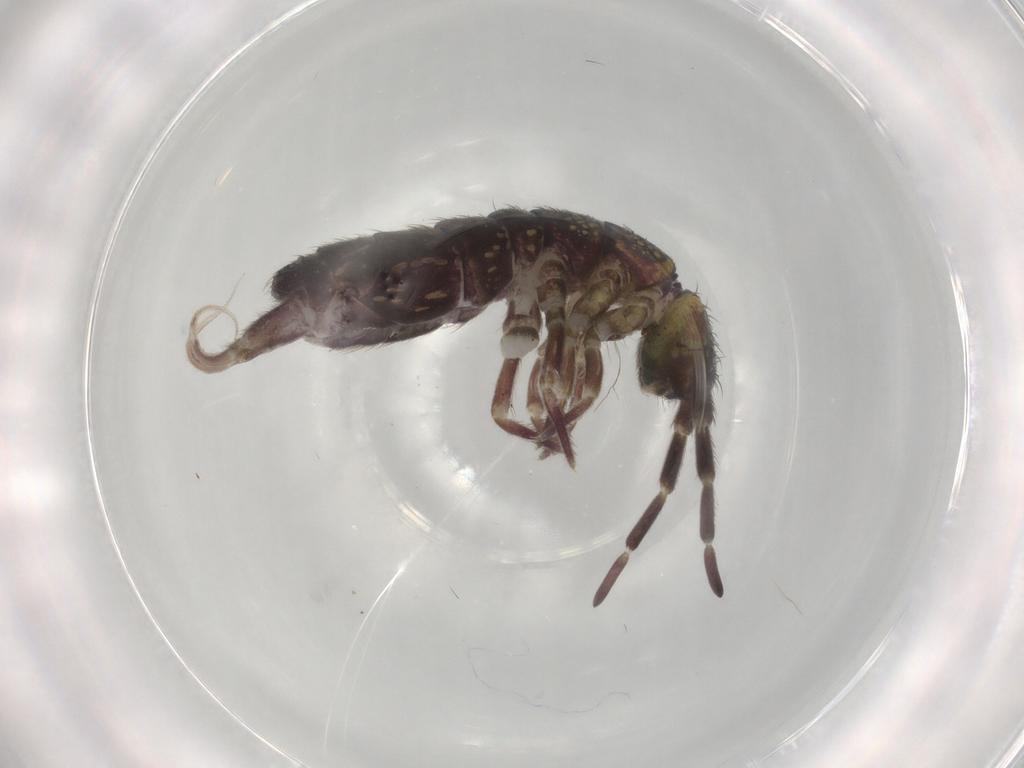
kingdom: Animalia
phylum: Arthropoda
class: Collembola
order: Entomobryomorpha
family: Isotomidae
